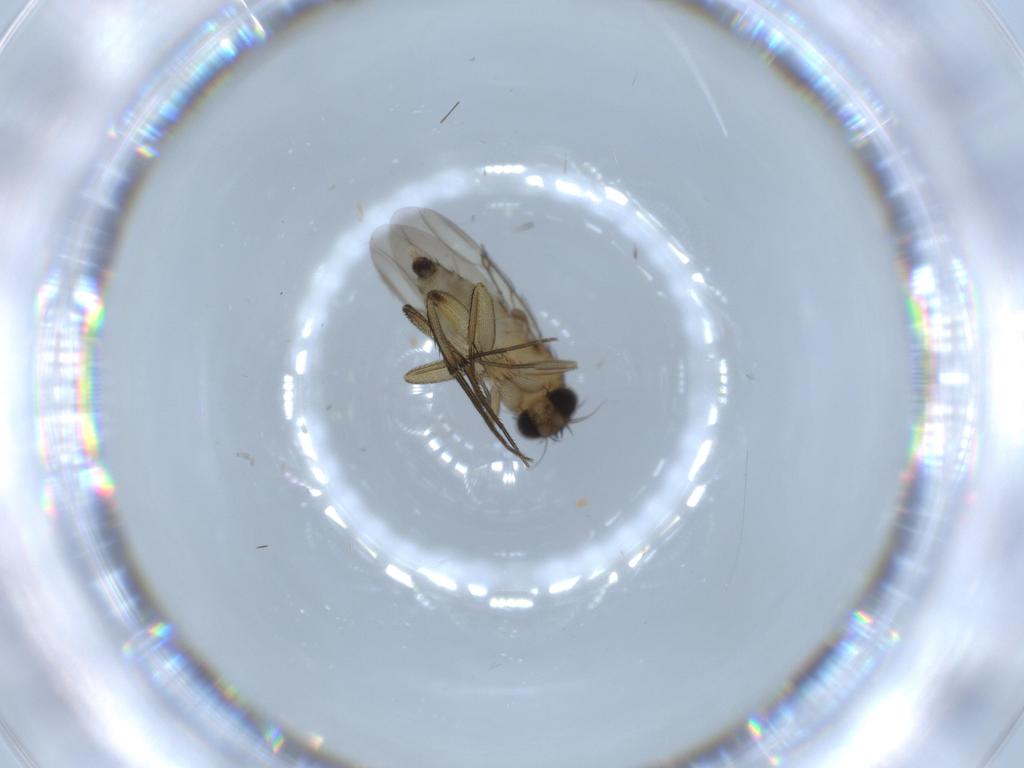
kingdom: Animalia
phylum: Arthropoda
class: Insecta
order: Diptera
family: Phoridae
